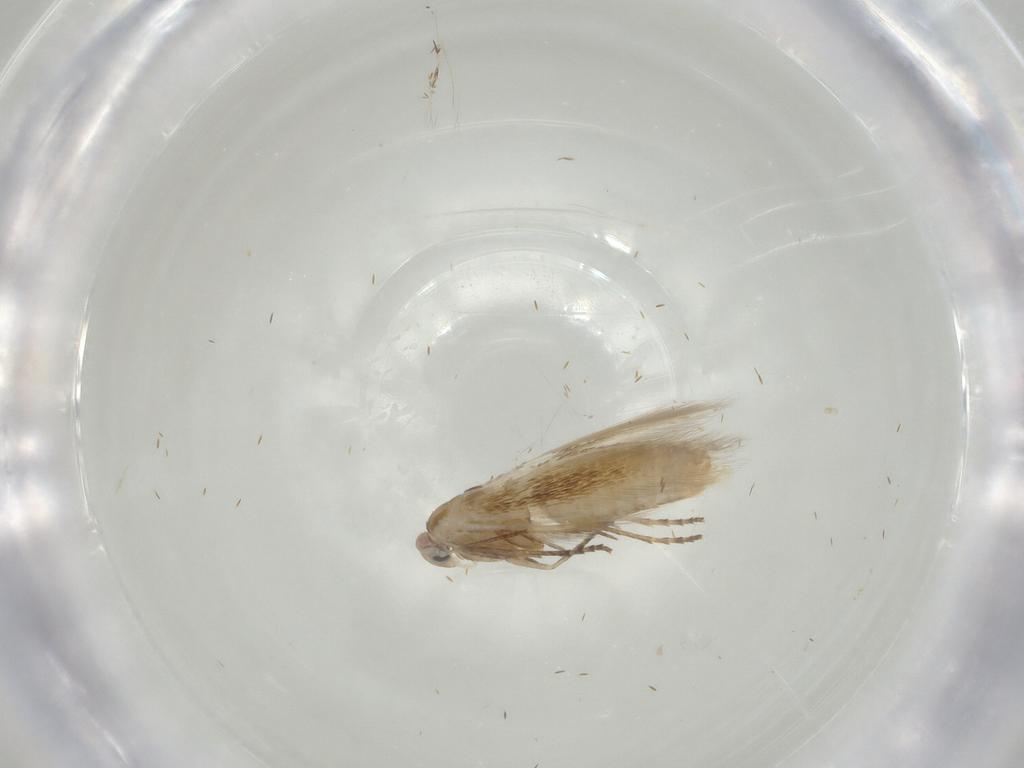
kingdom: Animalia
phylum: Arthropoda
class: Insecta
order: Lepidoptera
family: Bucculatricidae
